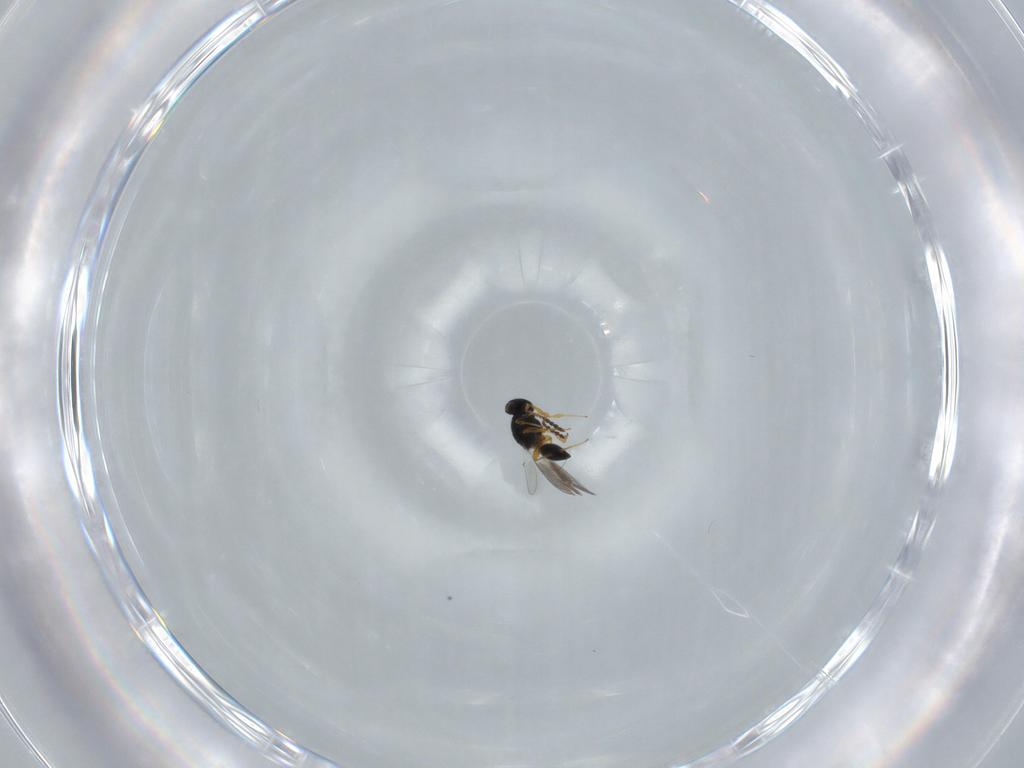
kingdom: Animalia
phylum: Arthropoda
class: Insecta
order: Hymenoptera
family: Platygastridae
